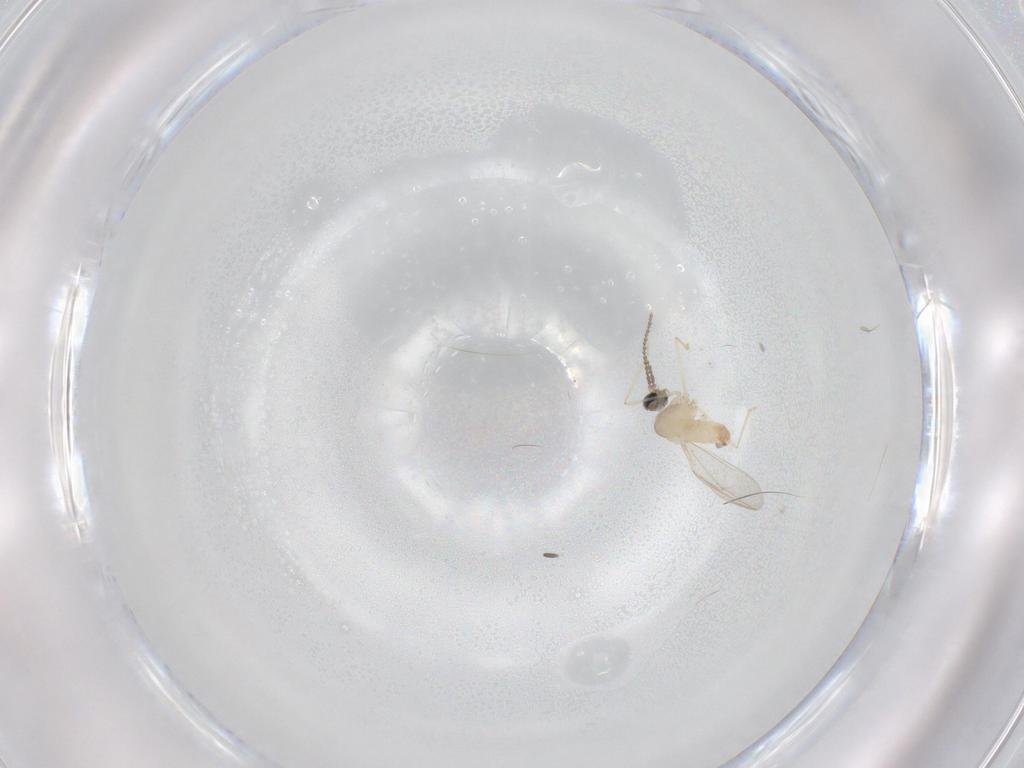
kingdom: Animalia
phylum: Arthropoda
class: Insecta
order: Diptera
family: Cecidomyiidae
